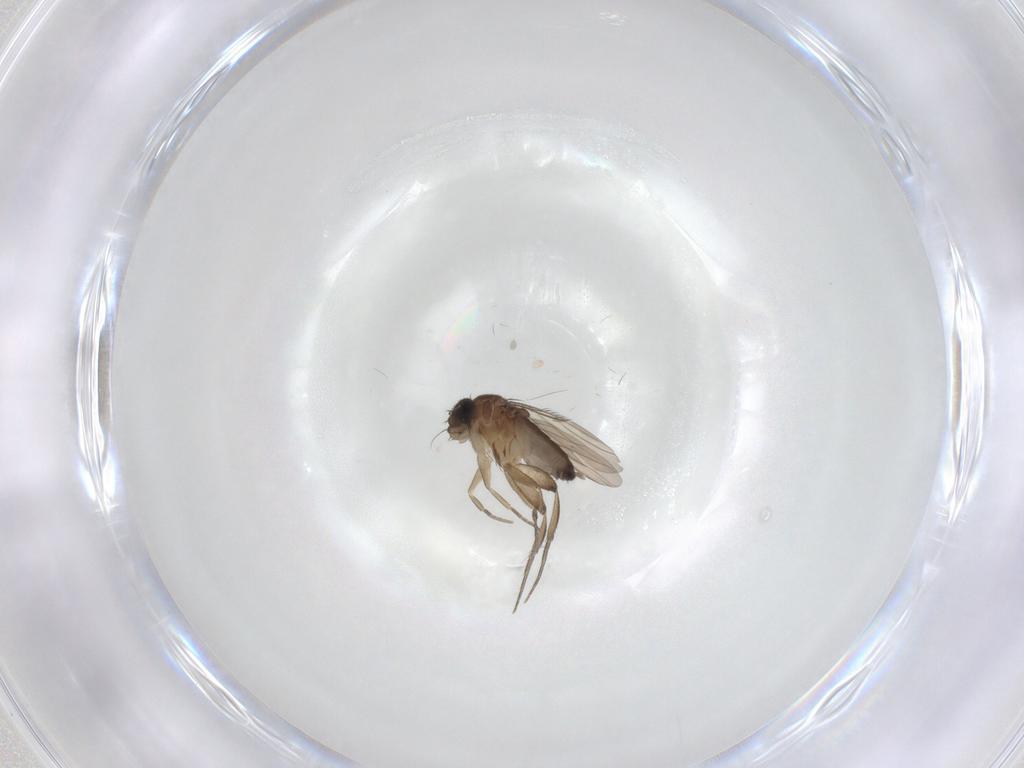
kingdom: Animalia
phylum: Arthropoda
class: Insecta
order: Diptera
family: Phoridae
